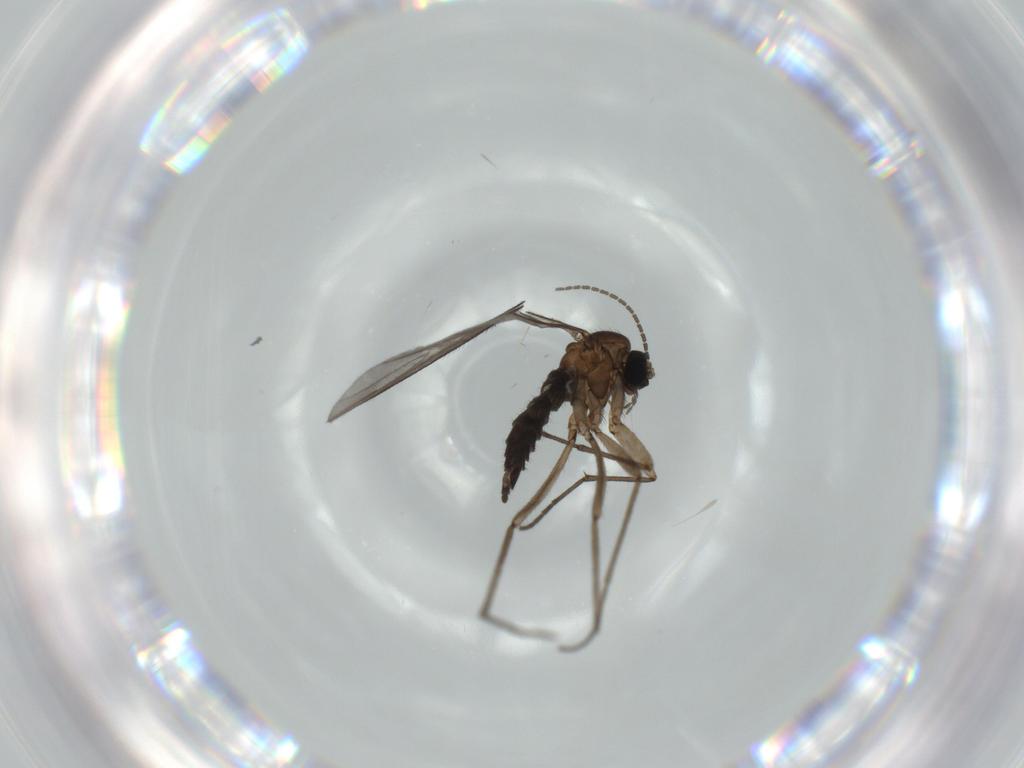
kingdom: Animalia
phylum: Arthropoda
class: Insecta
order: Diptera
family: Sciaridae
